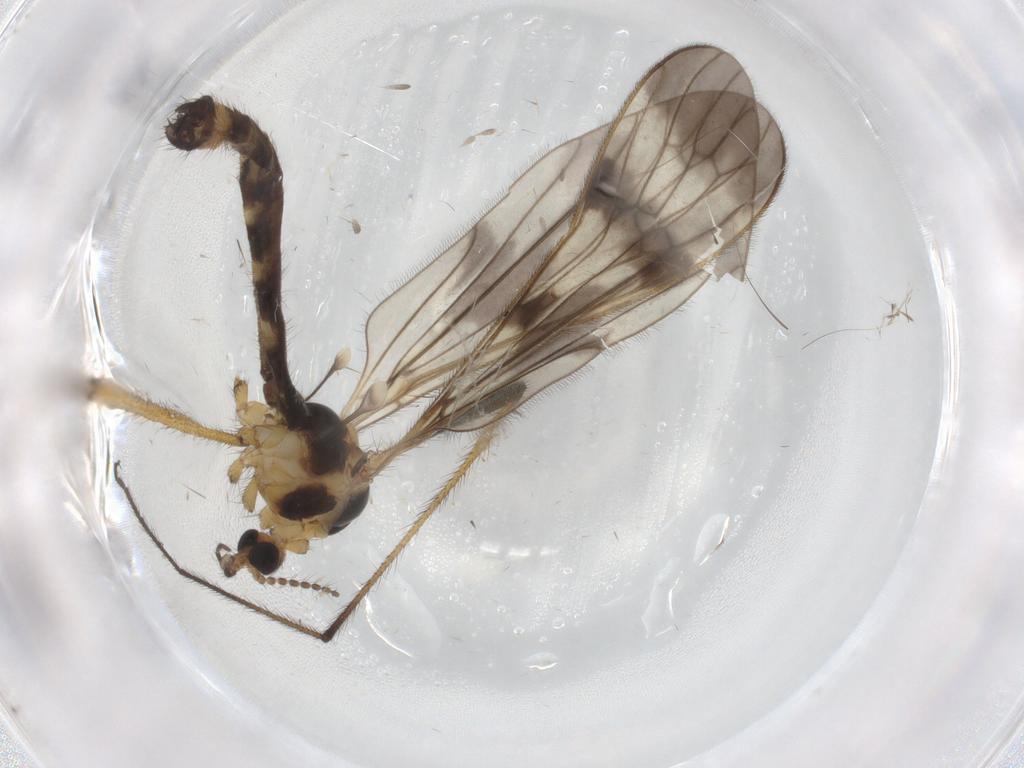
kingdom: Animalia
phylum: Arthropoda
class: Insecta
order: Diptera
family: Limoniidae
